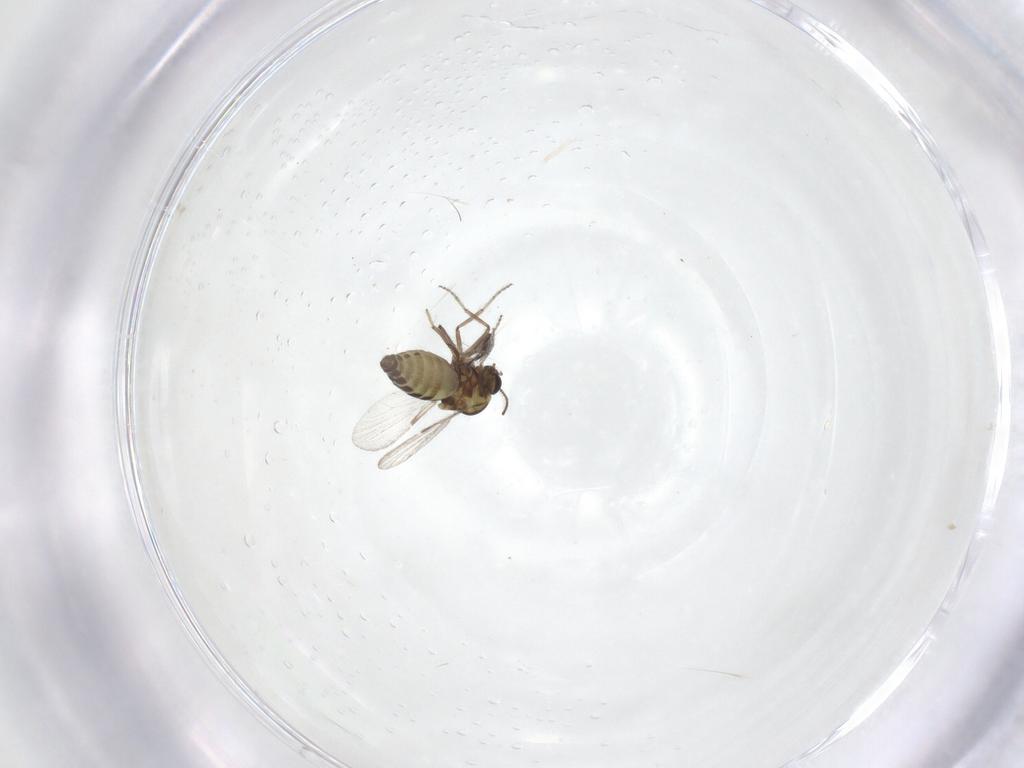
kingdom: Animalia
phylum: Arthropoda
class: Insecta
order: Diptera
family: Ceratopogonidae
